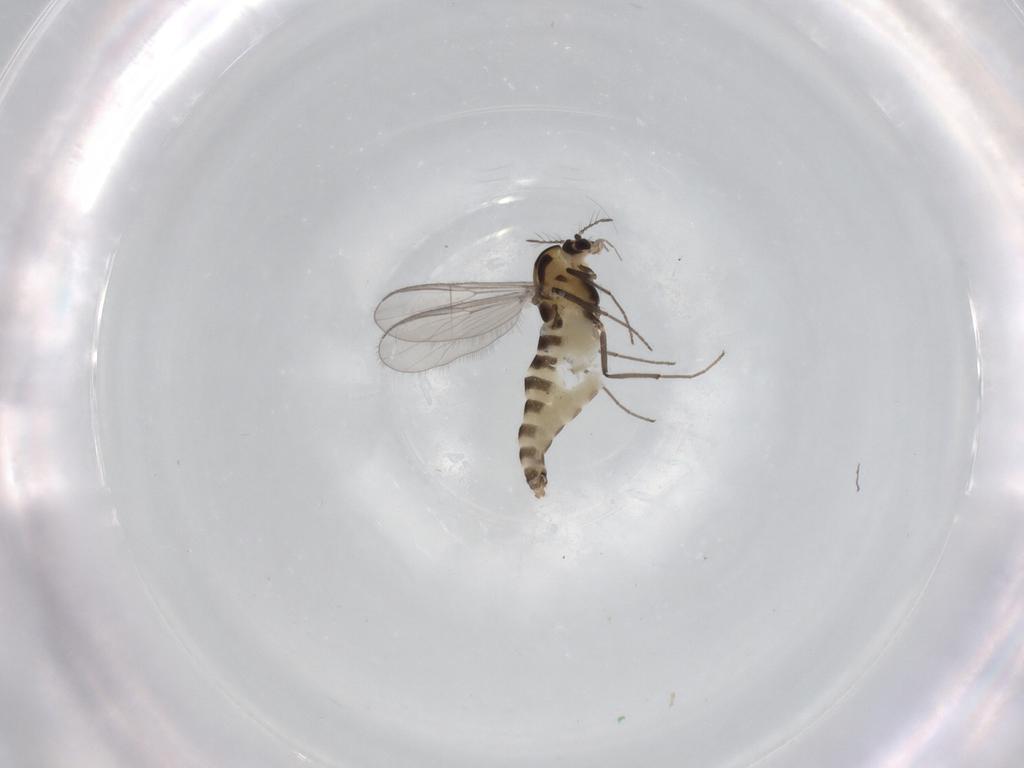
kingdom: Animalia
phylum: Arthropoda
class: Insecta
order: Diptera
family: Chironomidae
